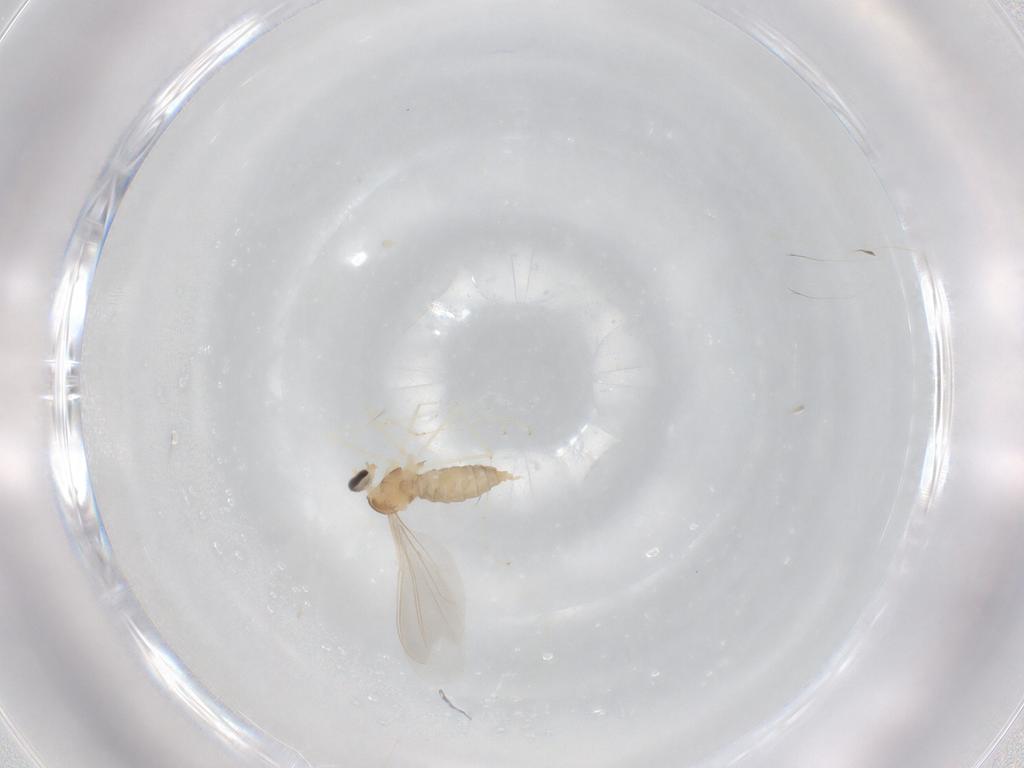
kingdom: Animalia
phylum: Arthropoda
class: Insecta
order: Diptera
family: Cecidomyiidae
